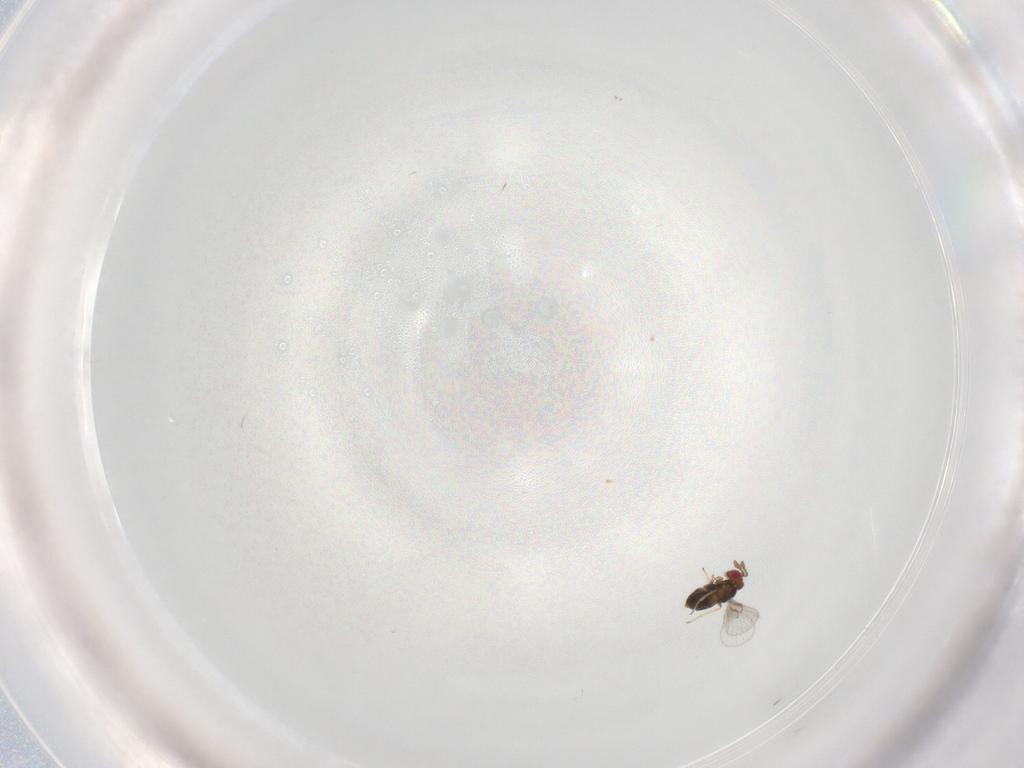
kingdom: Animalia
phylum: Arthropoda
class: Insecta
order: Hymenoptera
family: Trichogrammatidae
